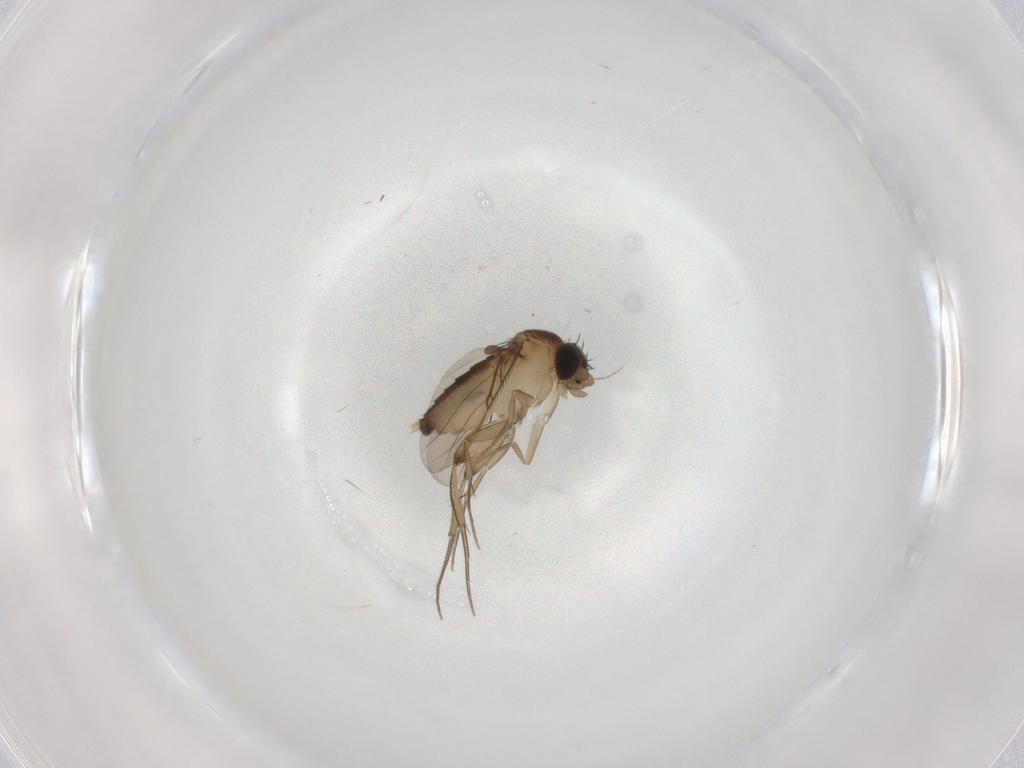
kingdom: Animalia
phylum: Arthropoda
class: Insecta
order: Diptera
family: Phoridae
